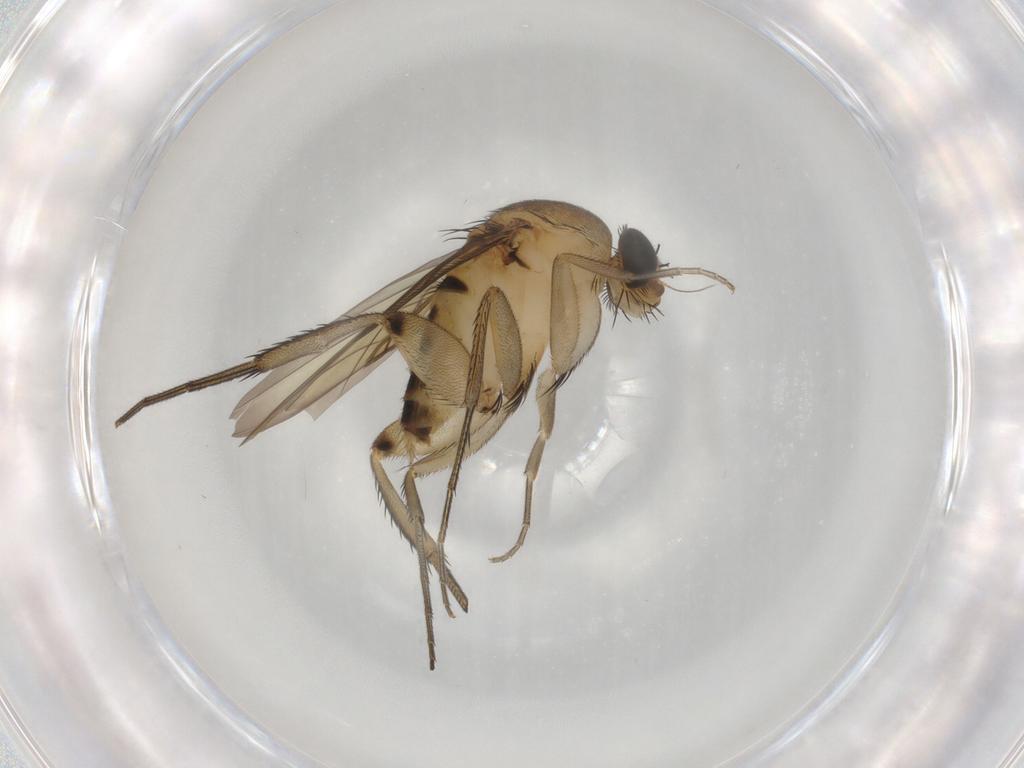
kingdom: Animalia
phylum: Arthropoda
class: Insecta
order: Diptera
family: Phoridae
